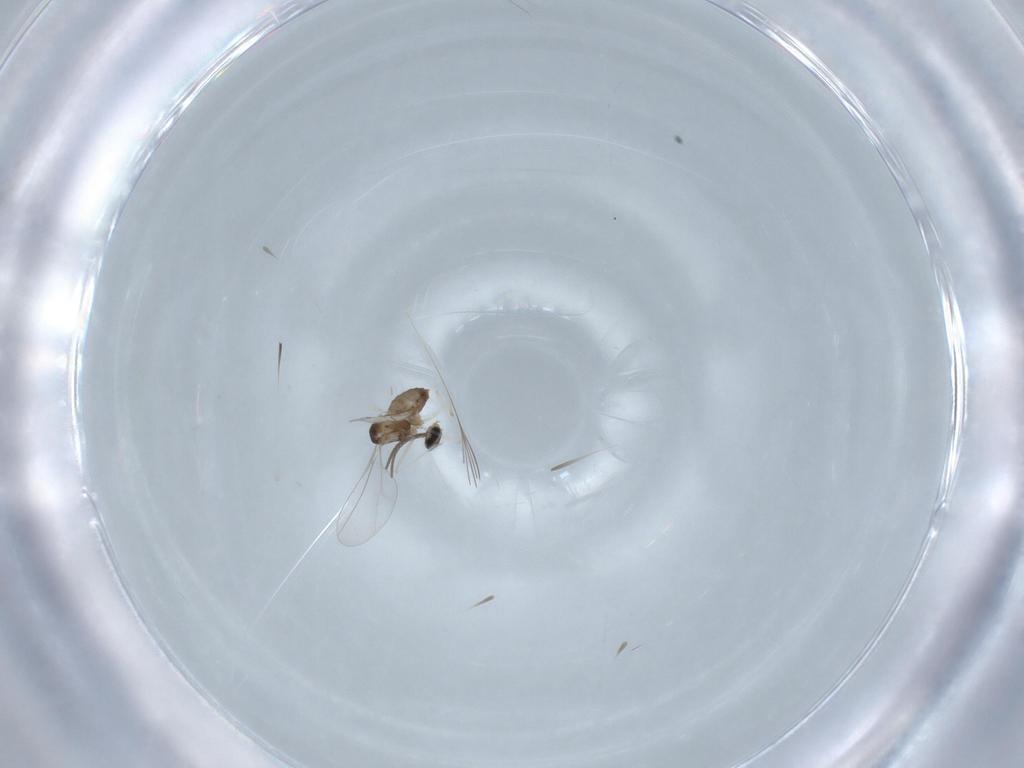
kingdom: Animalia
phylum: Arthropoda
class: Insecta
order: Diptera
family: Cecidomyiidae
